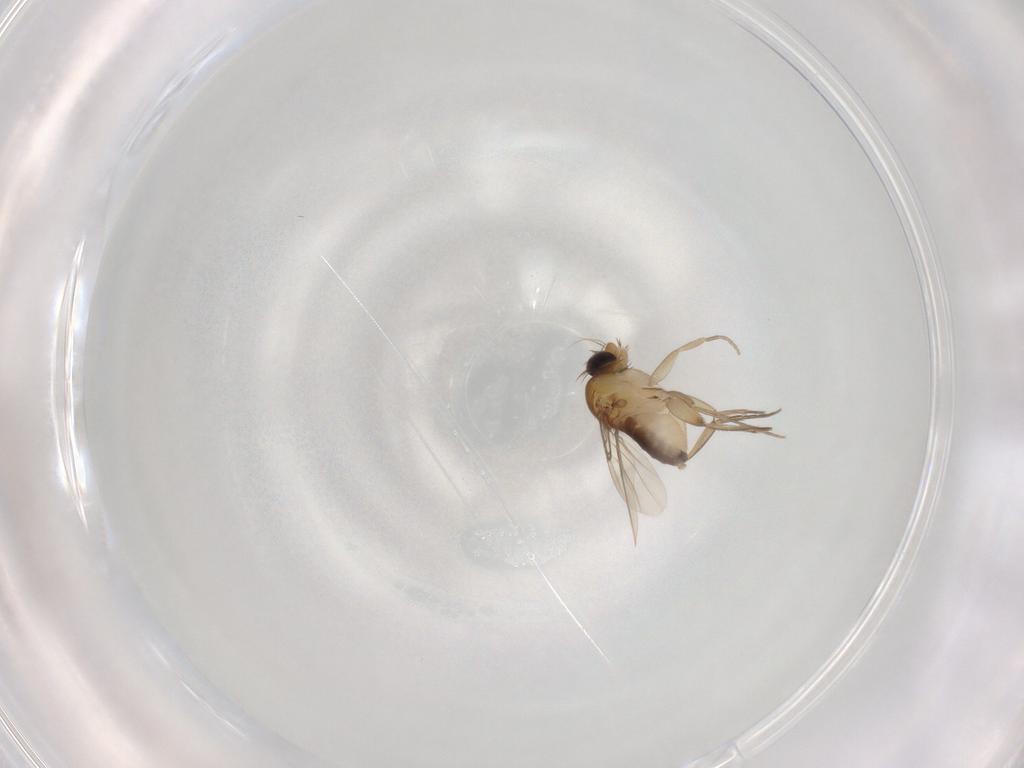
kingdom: Animalia
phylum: Arthropoda
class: Insecta
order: Diptera
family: Phoridae
